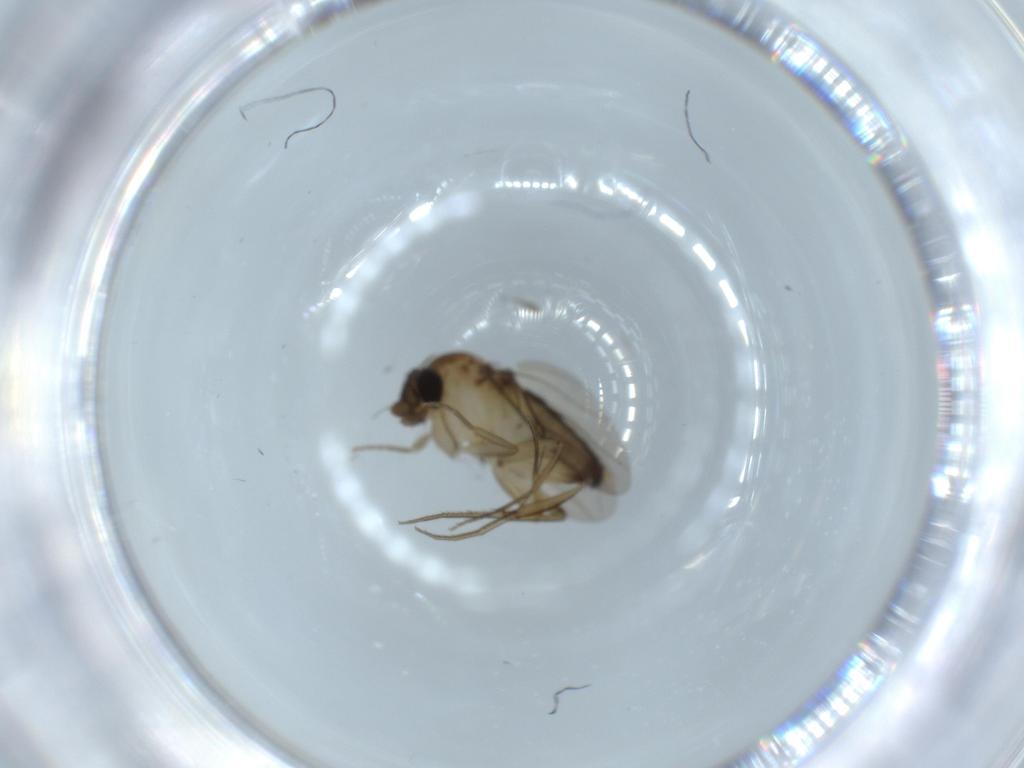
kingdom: Animalia
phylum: Arthropoda
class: Insecta
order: Diptera
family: Phoridae
